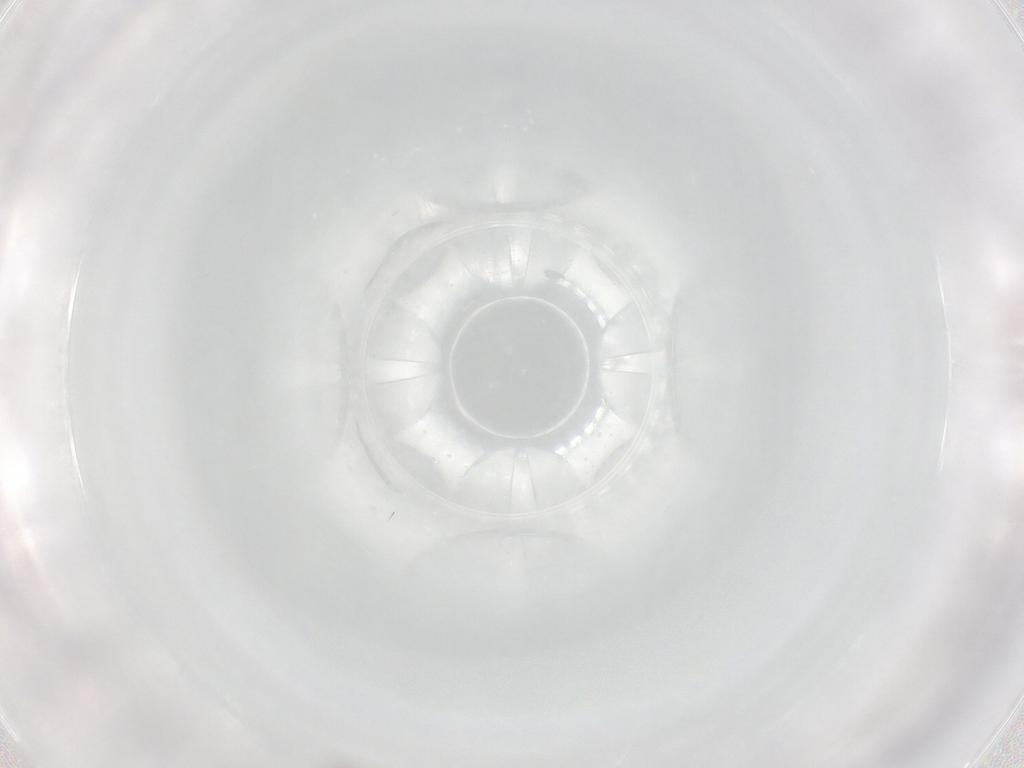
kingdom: Animalia
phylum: Arthropoda
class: Arachnida
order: Sarcoptiformes
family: Oribatulidae
